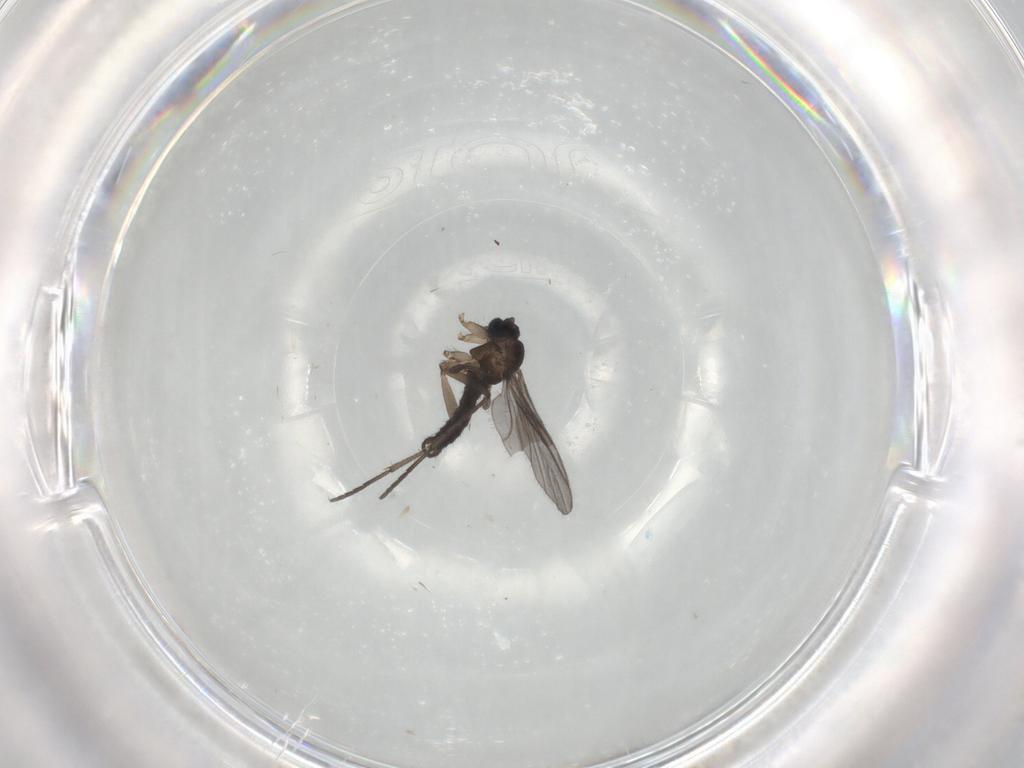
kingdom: Animalia
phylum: Arthropoda
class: Insecta
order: Diptera
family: Sciaridae
